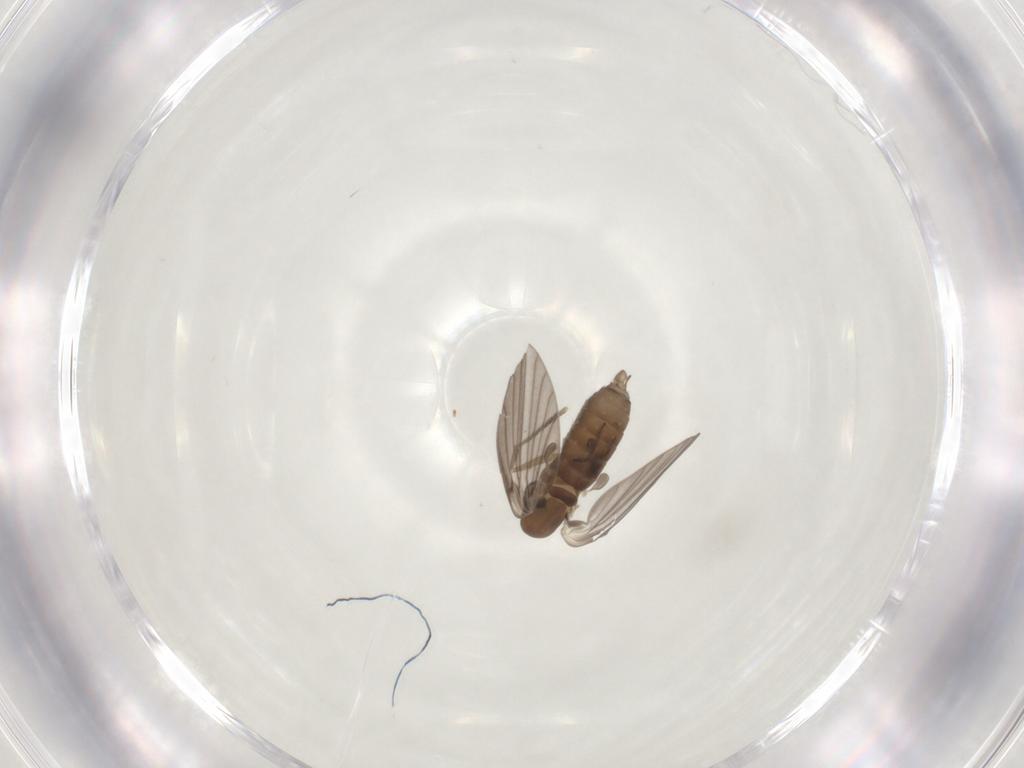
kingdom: Animalia
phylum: Arthropoda
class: Insecta
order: Diptera
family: Psychodidae
